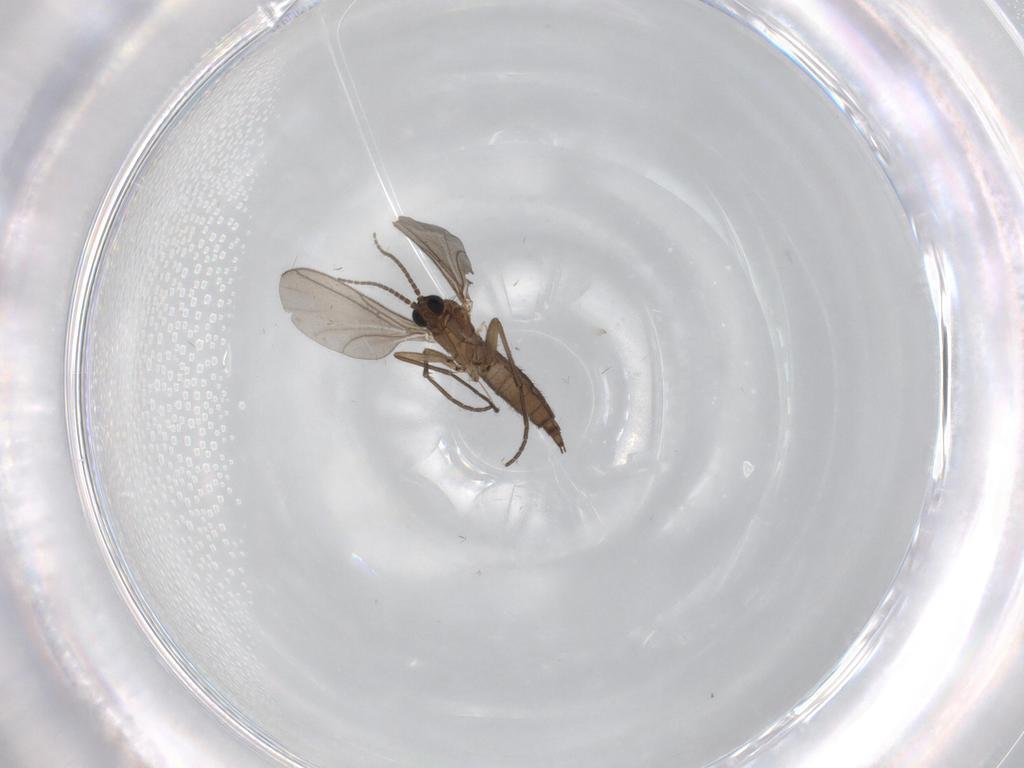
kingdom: Animalia
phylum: Arthropoda
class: Insecta
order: Diptera
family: Sciaridae
